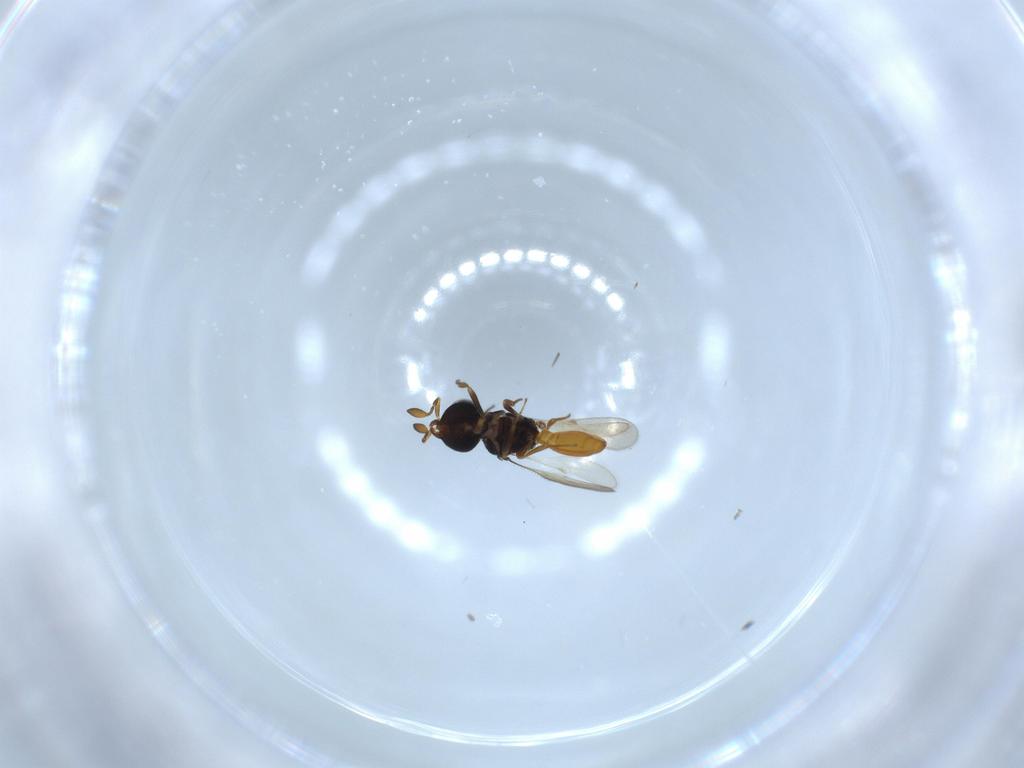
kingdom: Animalia
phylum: Arthropoda
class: Insecta
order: Hymenoptera
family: Scelionidae
